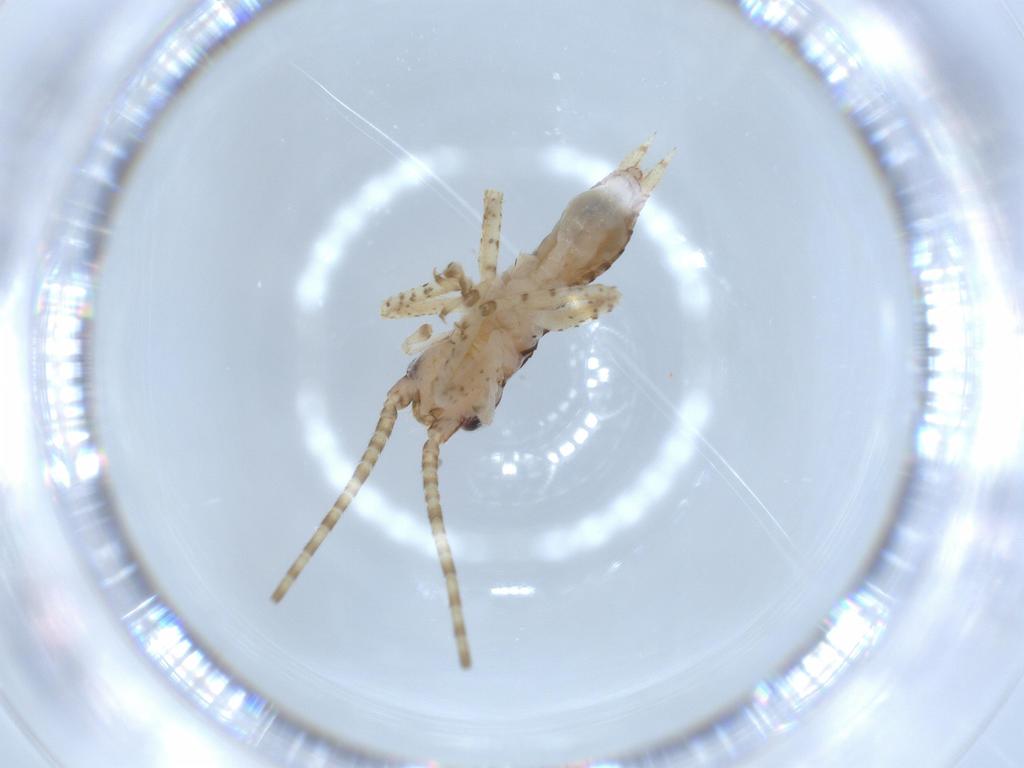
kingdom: Animalia
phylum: Arthropoda
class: Insecta
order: Orthoptera
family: Gryllidae
